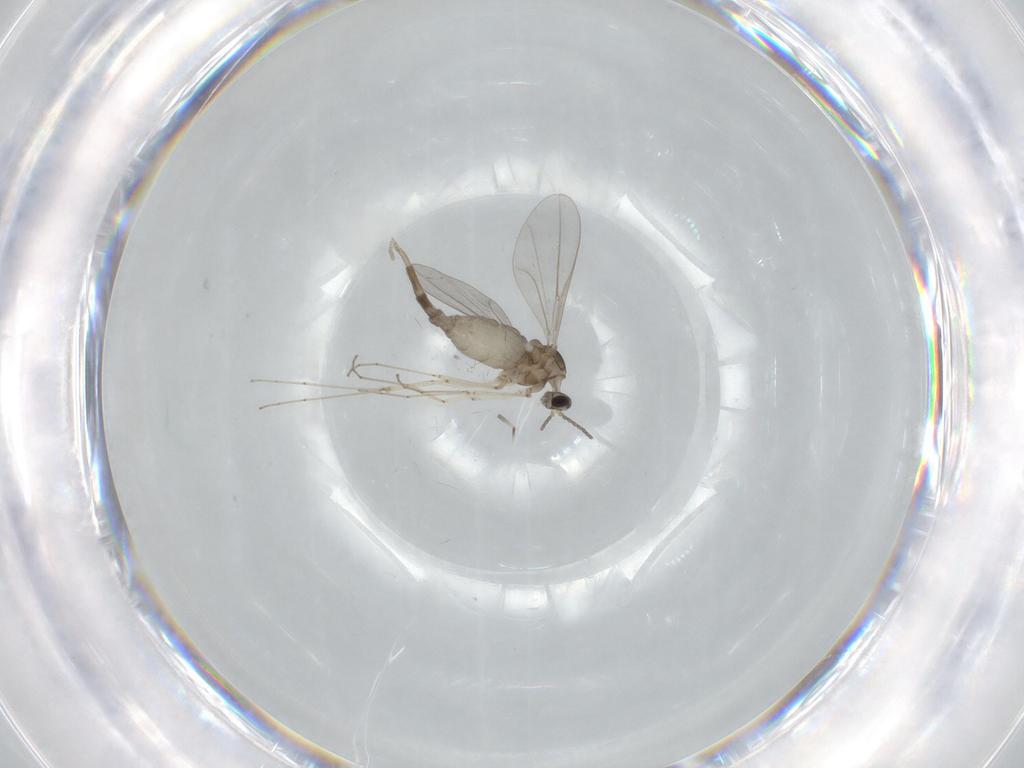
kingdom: Animalia
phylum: Arthropoda
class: Insecta
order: Diptera
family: Cecidomyiidae
